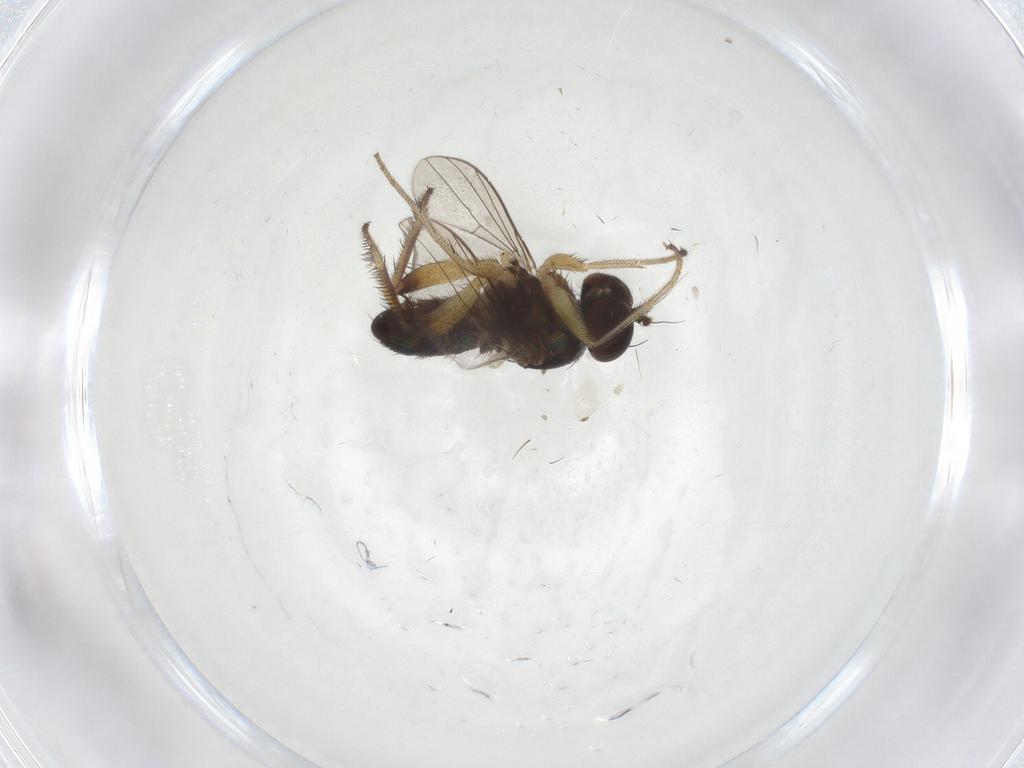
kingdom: Animalia
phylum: Arthropoda
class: Insecta
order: Diptera
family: Dolichopodidae
